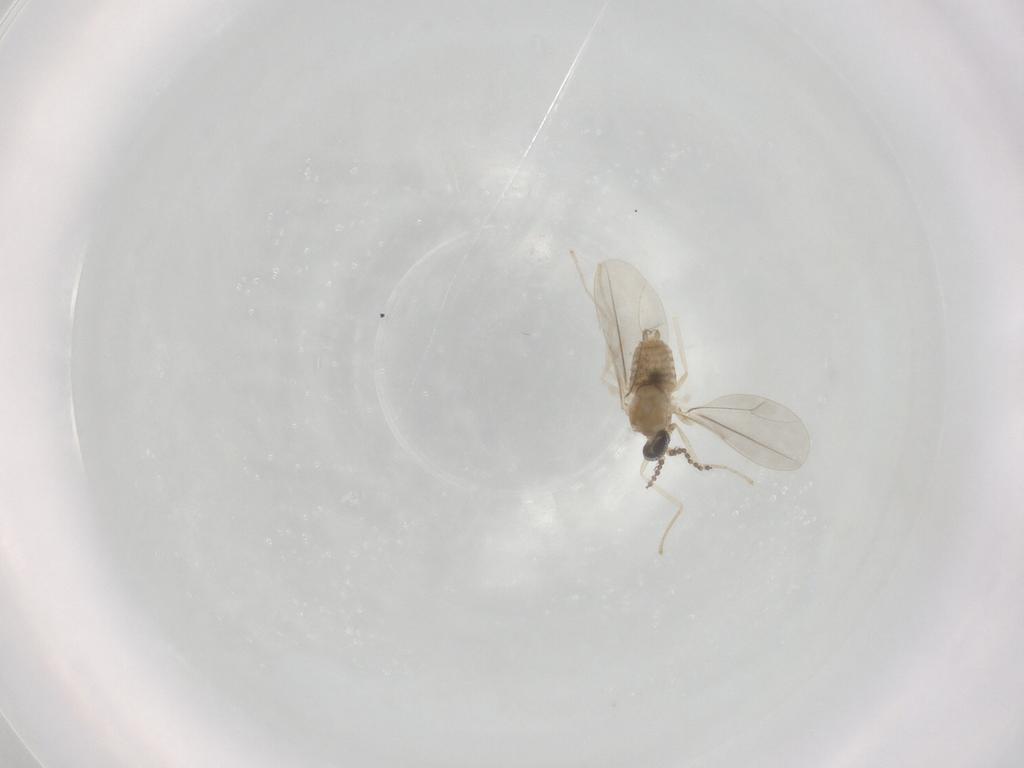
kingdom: Animalia
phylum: Arthropoda
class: Insecta
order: Diptera
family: Cecidomyiidae
